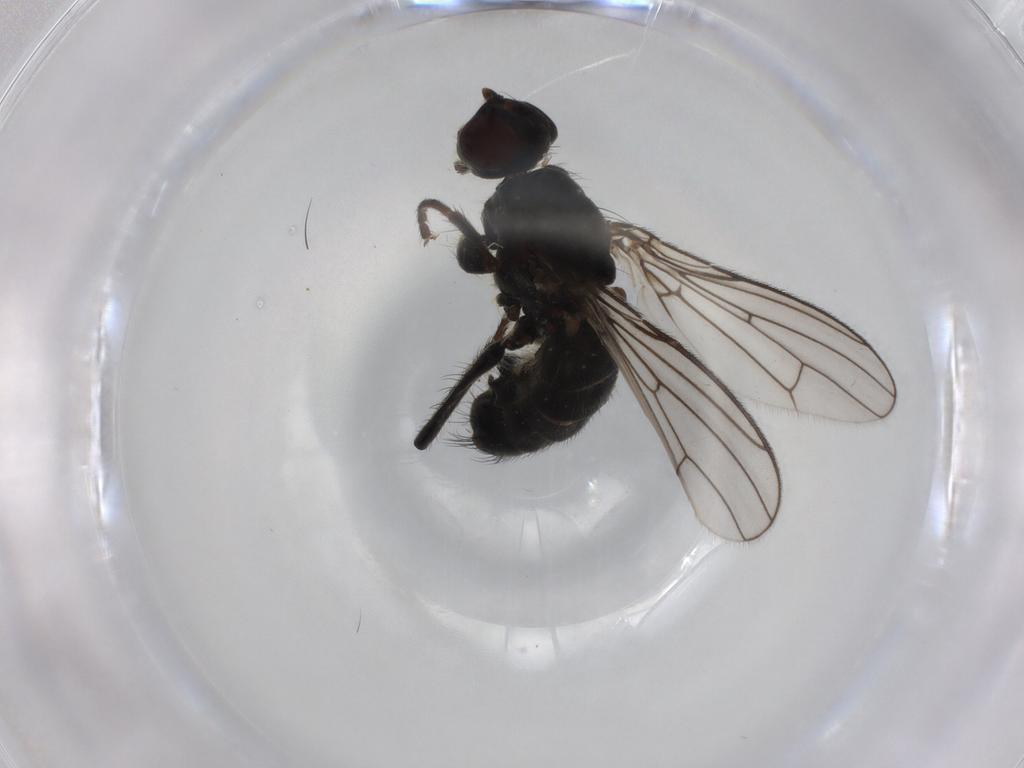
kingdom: Animalia
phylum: Arthropoda
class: Insecta
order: Diptera
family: Scathophagidae
